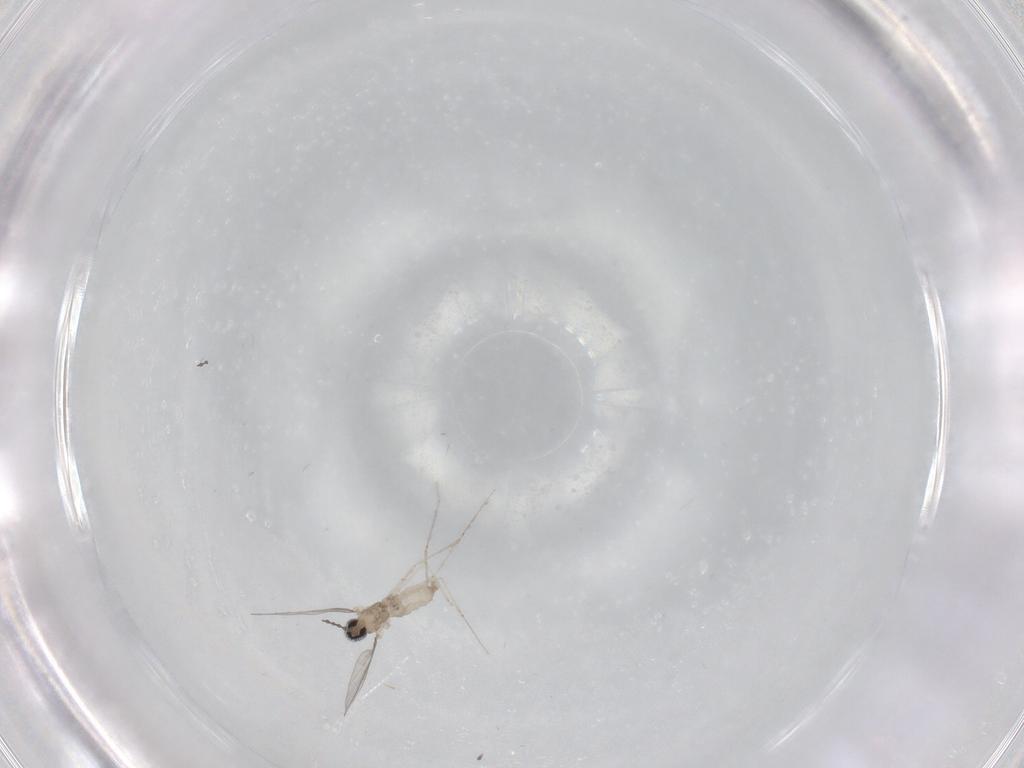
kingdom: Animalia
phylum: Arthropoda
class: Insecta
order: Diptera
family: Cecidomyiidae
